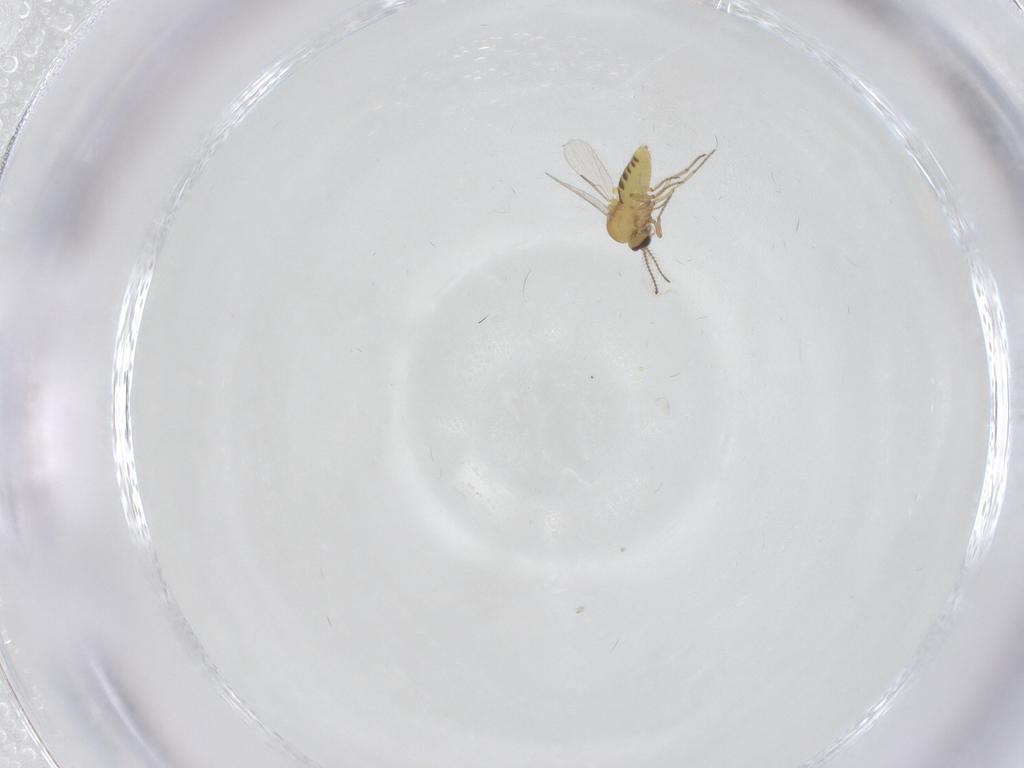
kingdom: Animalia
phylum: Arthropoda
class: Insecta
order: Diptera
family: Ceratopogonidae
